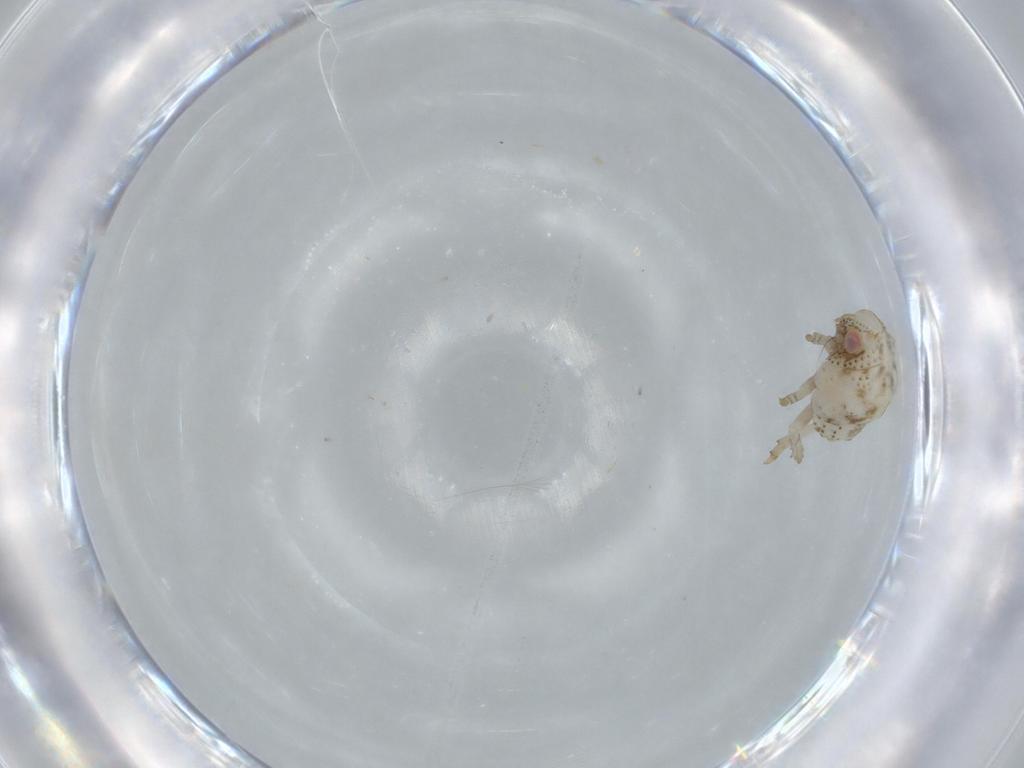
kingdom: Animalia
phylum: Arthropoda
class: Insecta
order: Hemiptera
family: Acanaloniidae
